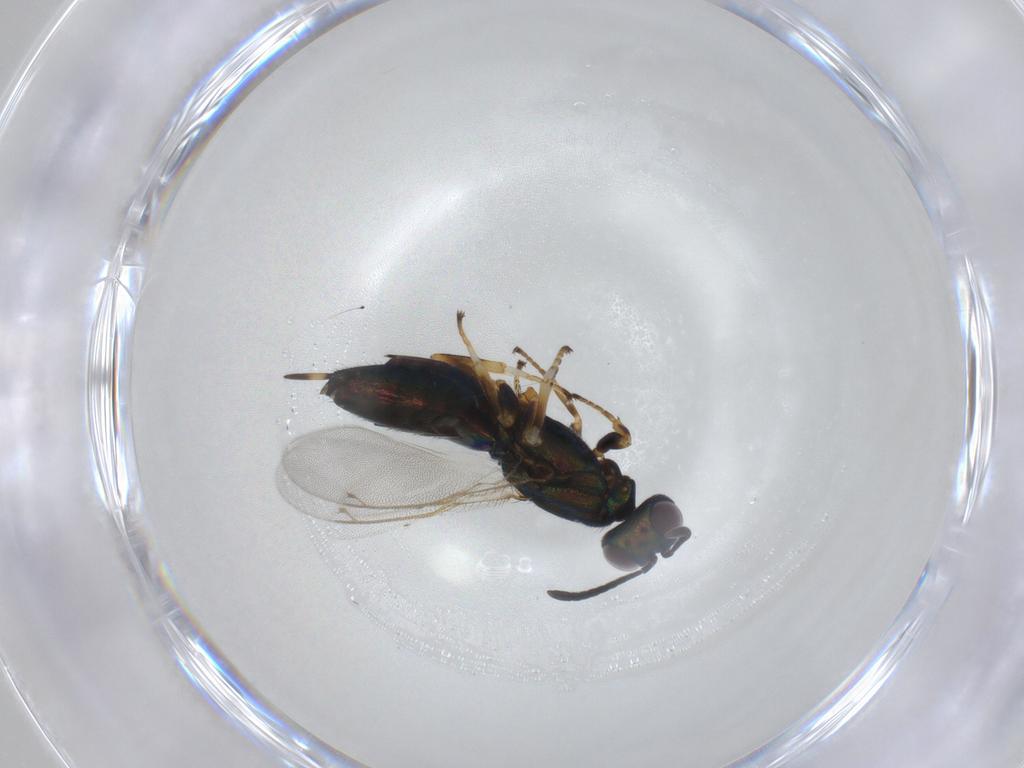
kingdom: Animalia
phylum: Arthropoda
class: Insecta
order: Hymenoptera
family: Eupelmidae
